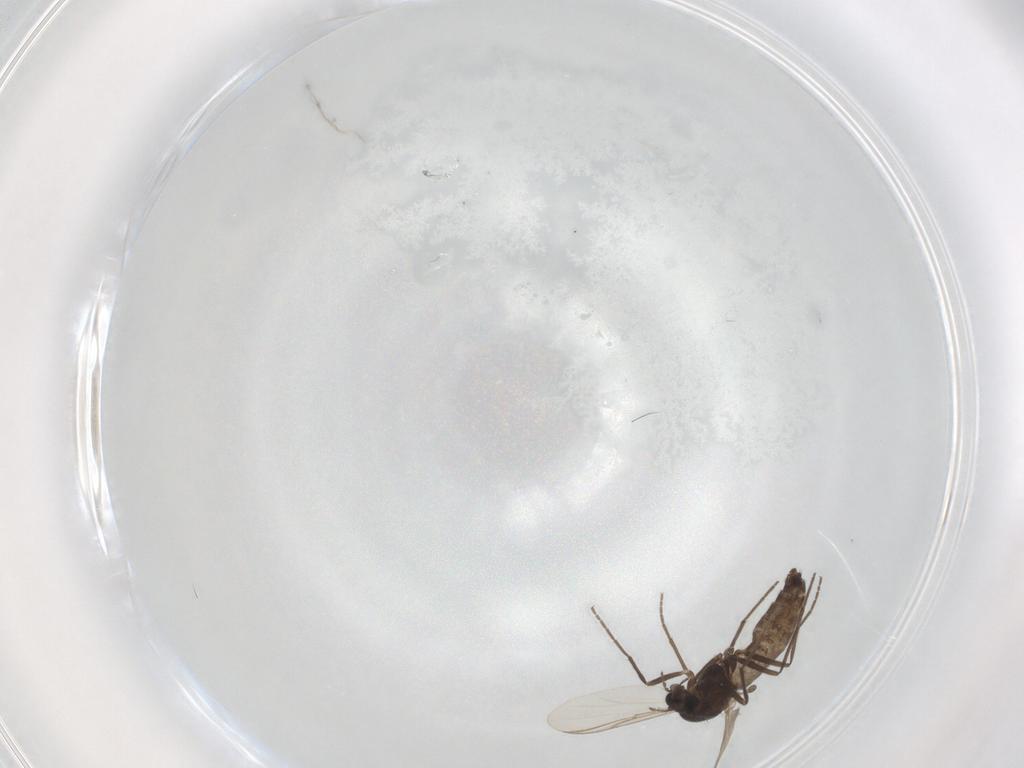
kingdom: Animalia
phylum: Arthropoda
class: Insecta
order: Diptera
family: Chironomidae
